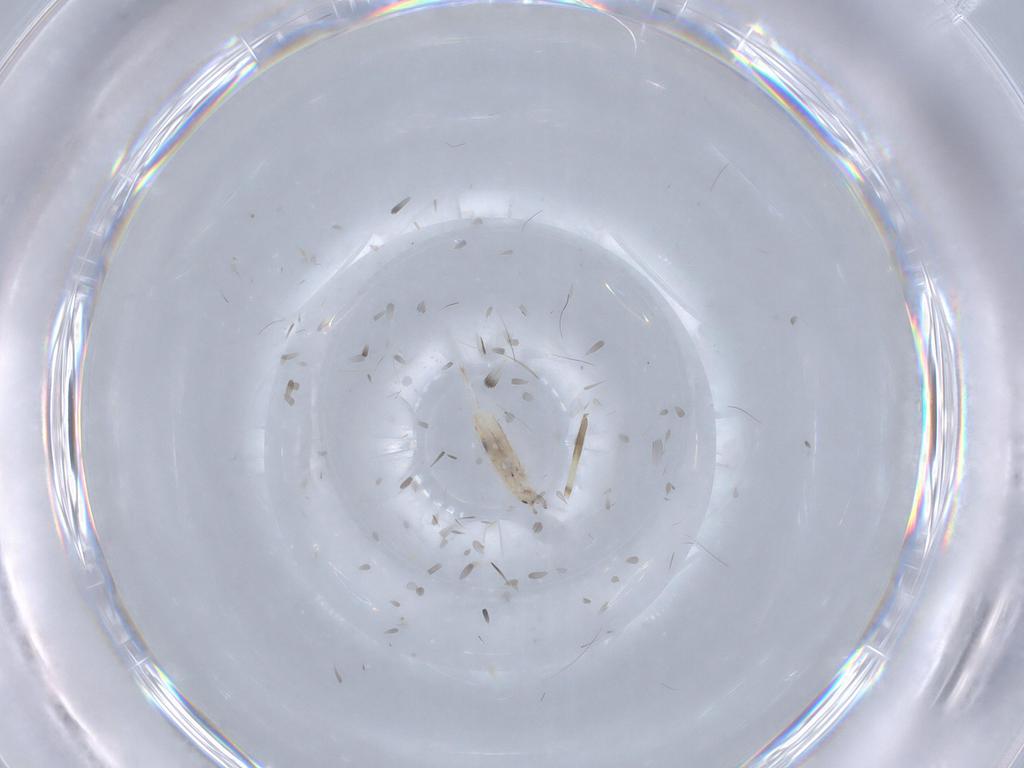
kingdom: Animalia
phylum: Arthropoda
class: Collembola
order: Entomobryomorpha
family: Entomobryidae
